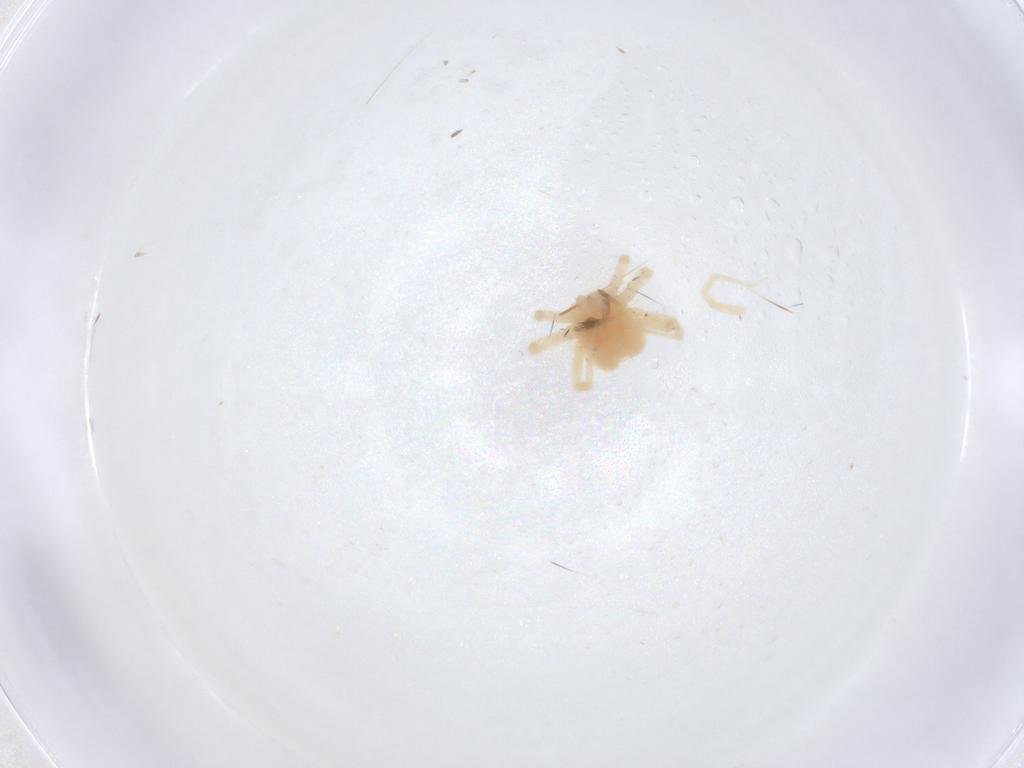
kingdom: Animalia
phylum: Arthropoda
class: Arachnida
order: Trombidiformes
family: Anystidae
